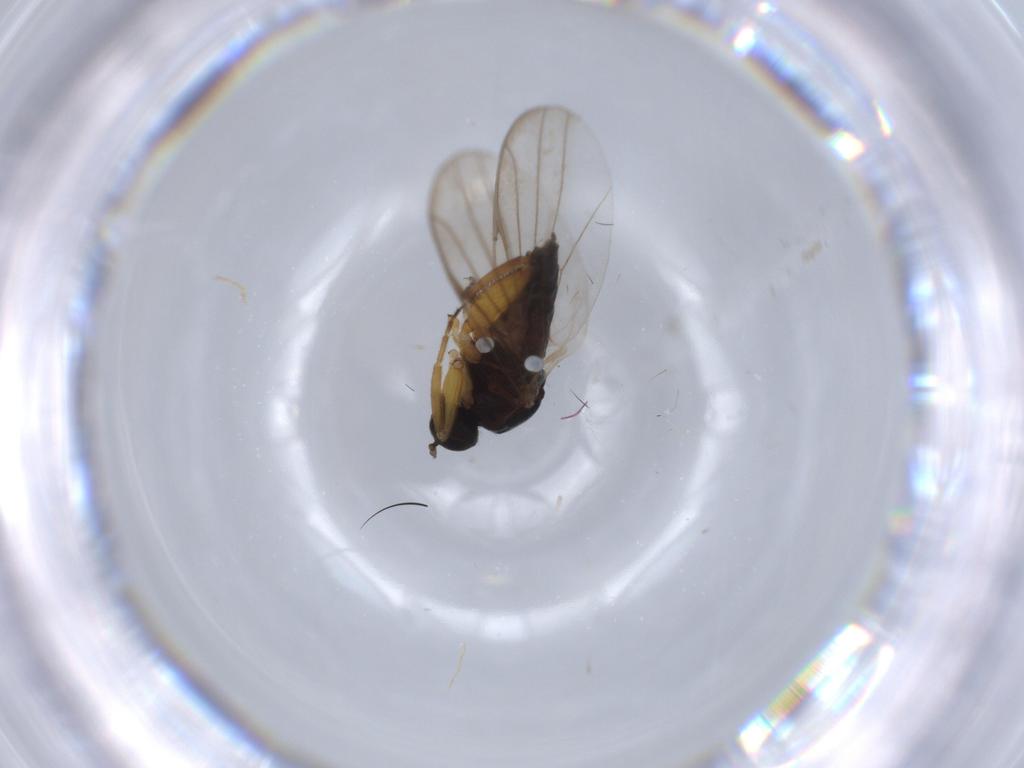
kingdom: Animalia
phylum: Arthropoda
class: Insecta
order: Diptera
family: Hybotidae
